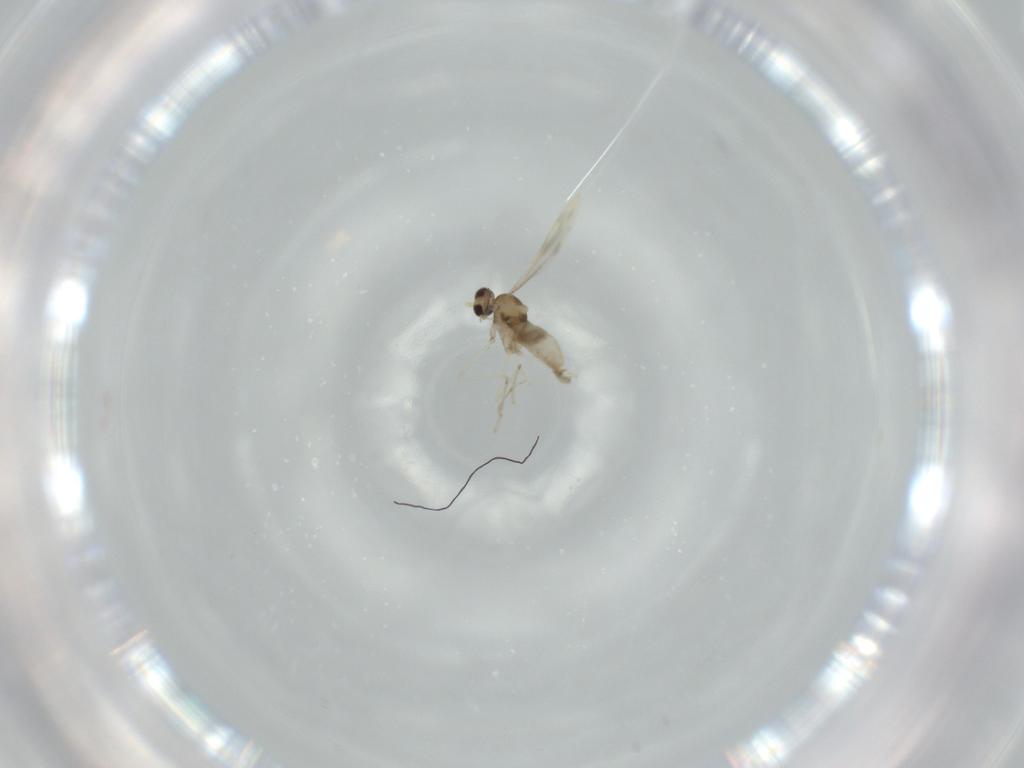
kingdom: Animalia
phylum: Arthropoda
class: Insecta
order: Diptera
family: Cecidomyiidae
